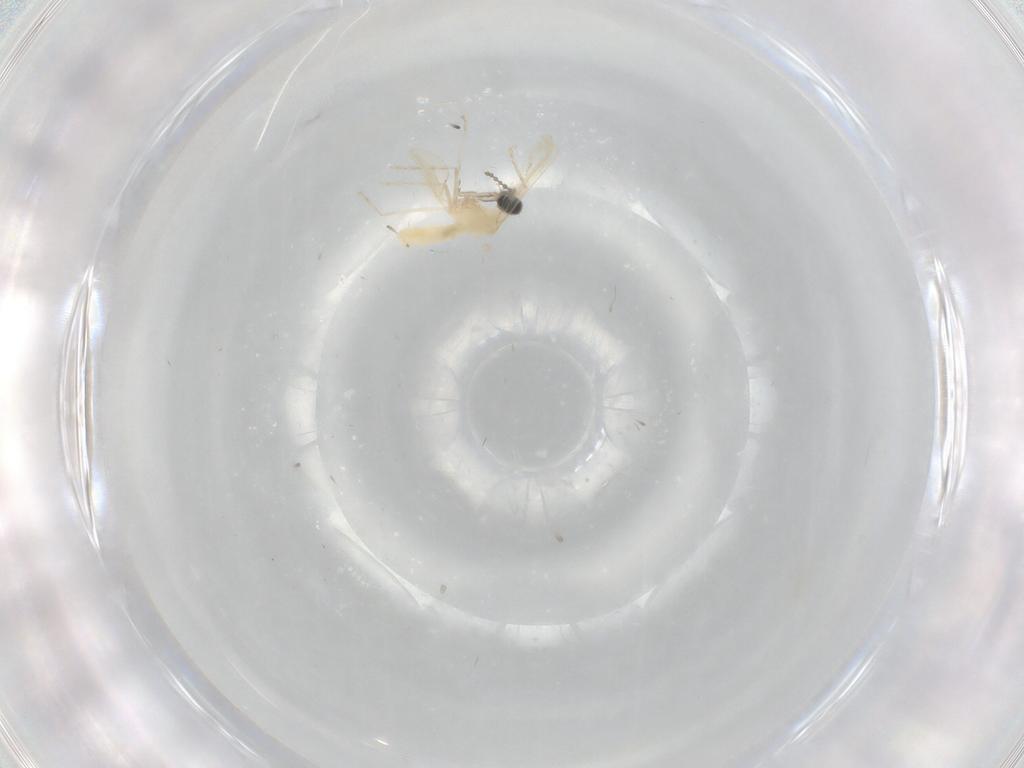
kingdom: Animalia
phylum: Arthropoda
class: Insecta
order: Diptera
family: Cecidomyiidae
